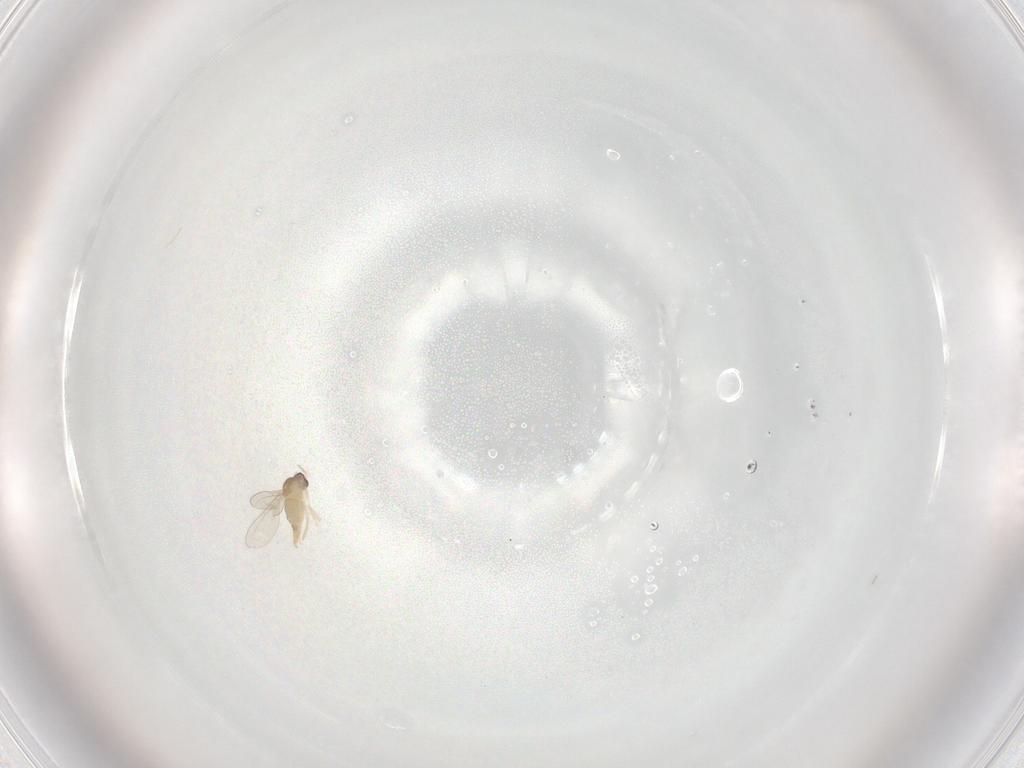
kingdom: Animalia
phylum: Arthropoda
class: Insecta
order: Diptera
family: Cecidomyiidae
